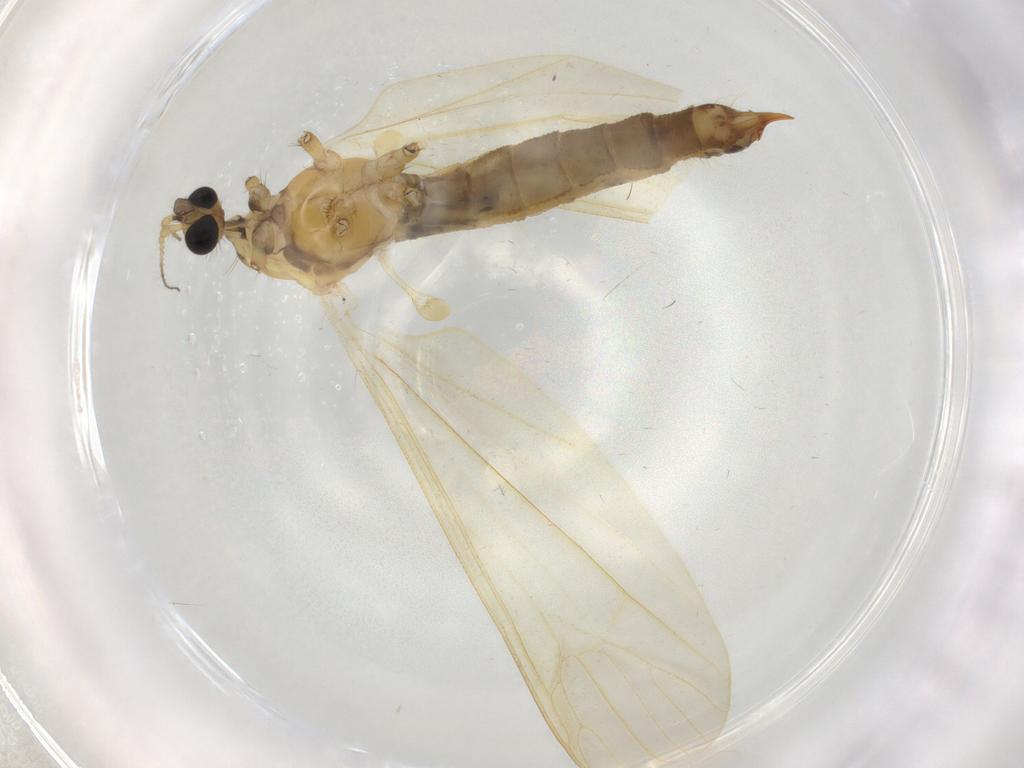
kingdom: Animalia
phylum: Arthropoda
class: Insecta
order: Diptera
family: Limoniidae
